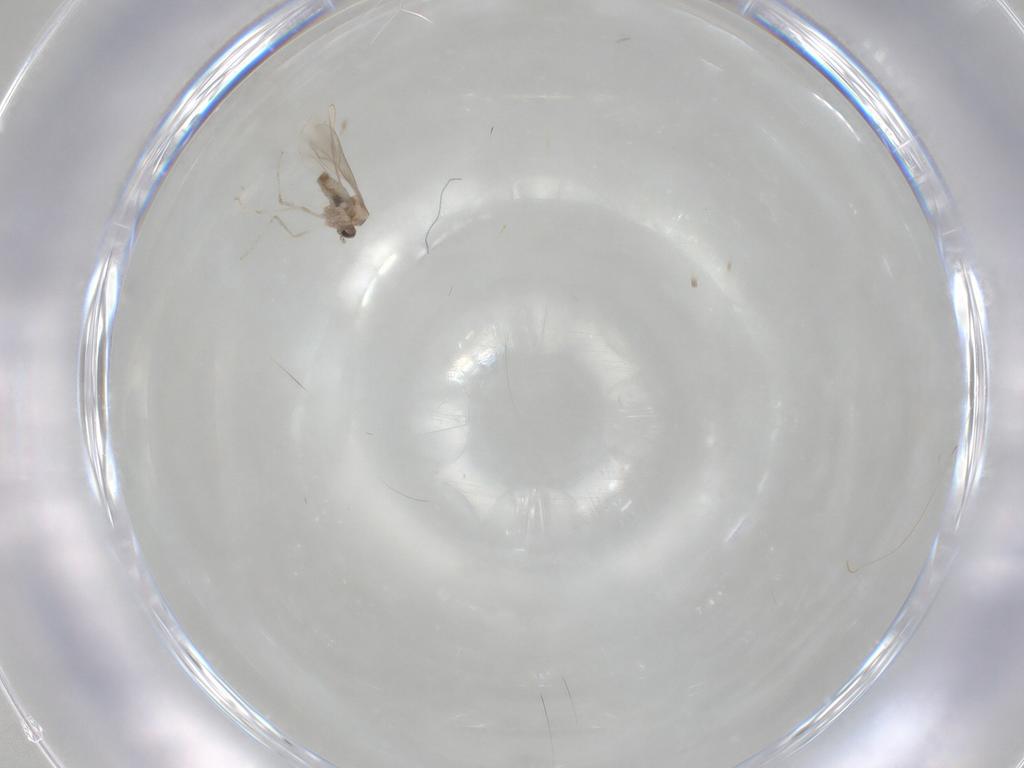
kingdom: Animalia
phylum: Arthropoda
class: Insecta
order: Diptera
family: Cecidomyiidae
